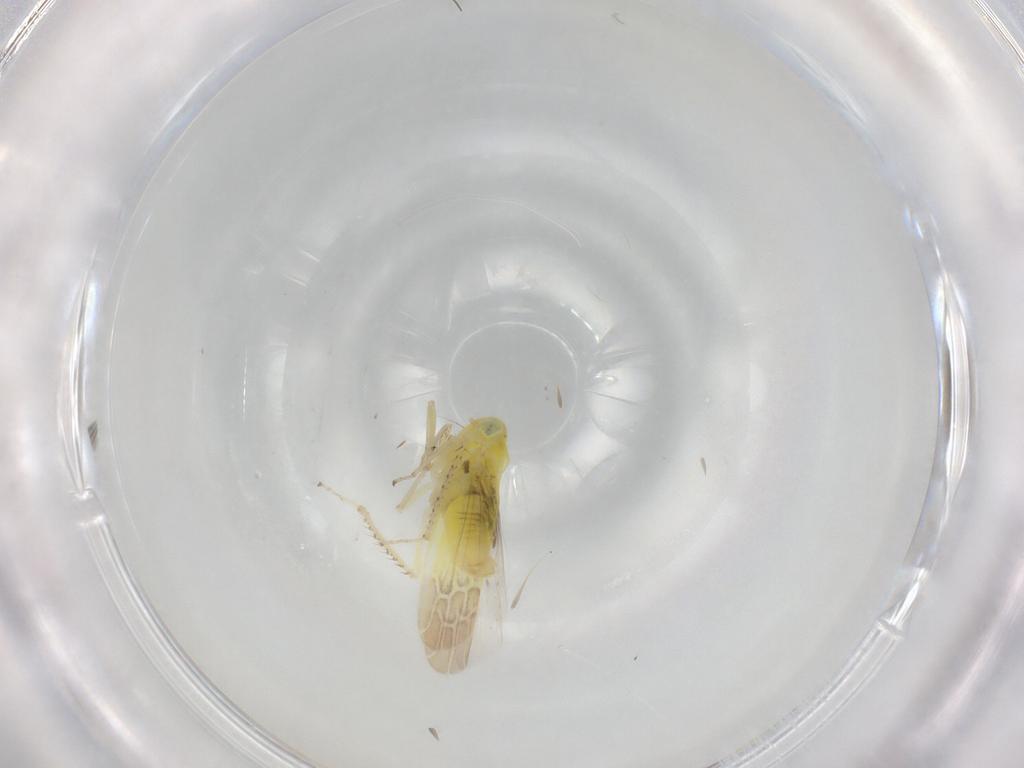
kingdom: Animalia
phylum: Arthropoda
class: Insecta
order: Hemiptera
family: Cicadellidae
